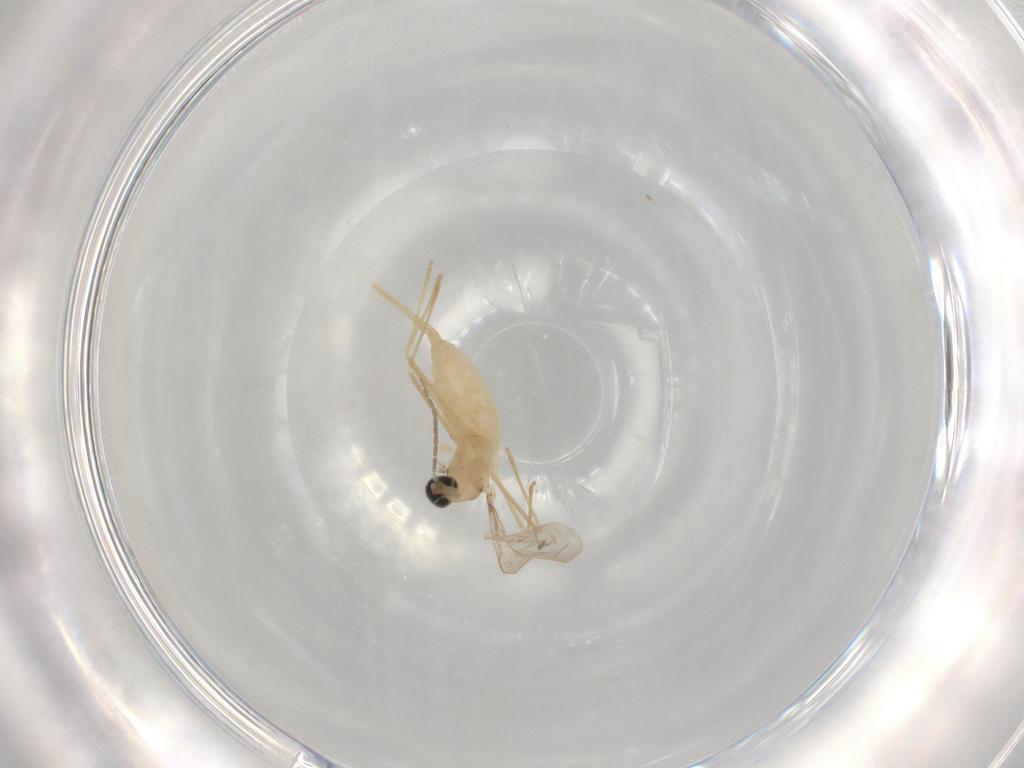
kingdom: Animalia
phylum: Arthropoda
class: Insecta
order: Diptera
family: Cecidomyiidae
